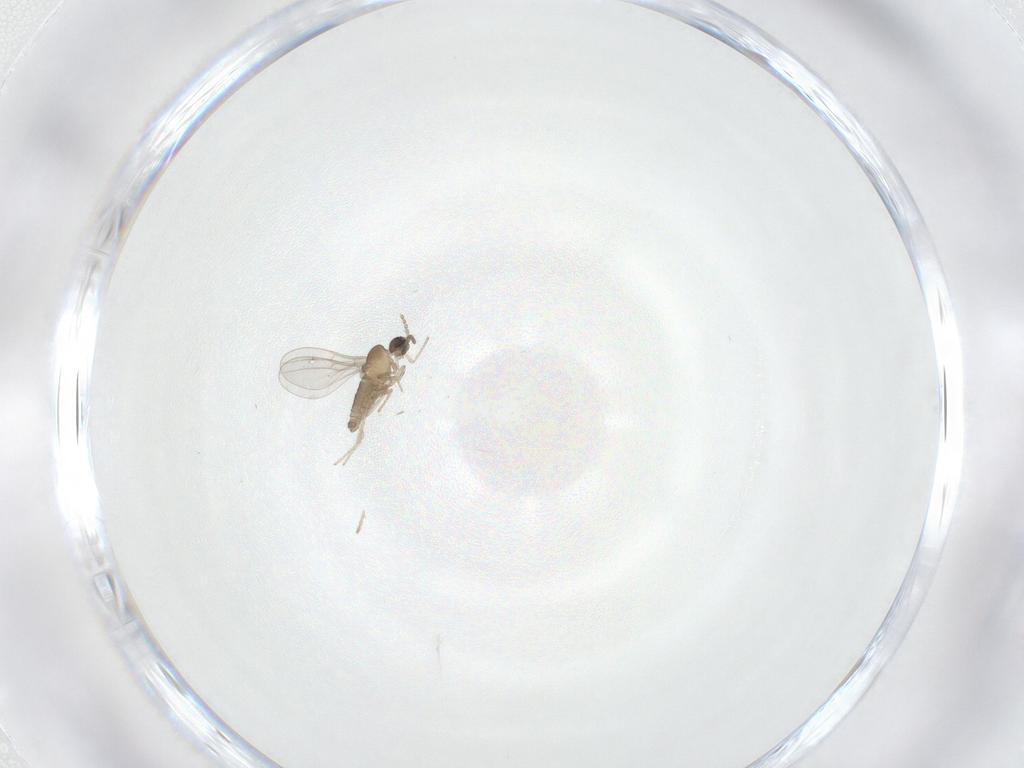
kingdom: Animalia
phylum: Arthropoda
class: Insecta
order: Diptera
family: Cecidomyiidae
